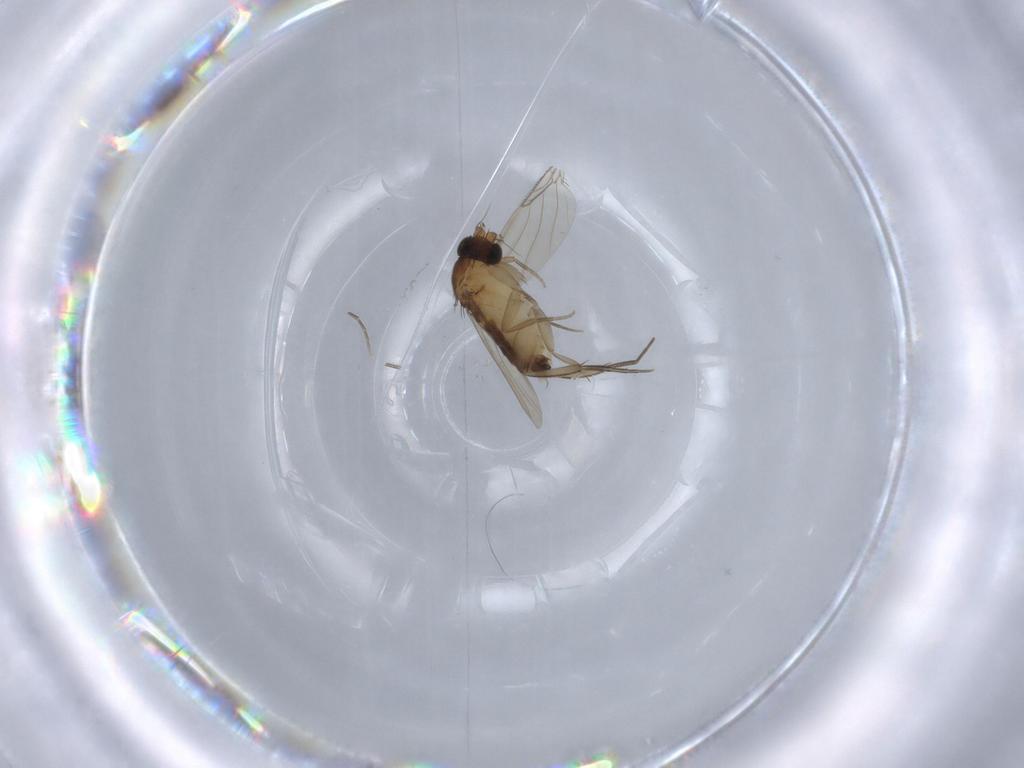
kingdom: Animalia
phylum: Arthropoda
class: Insecta
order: Diptera
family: Phoridae
